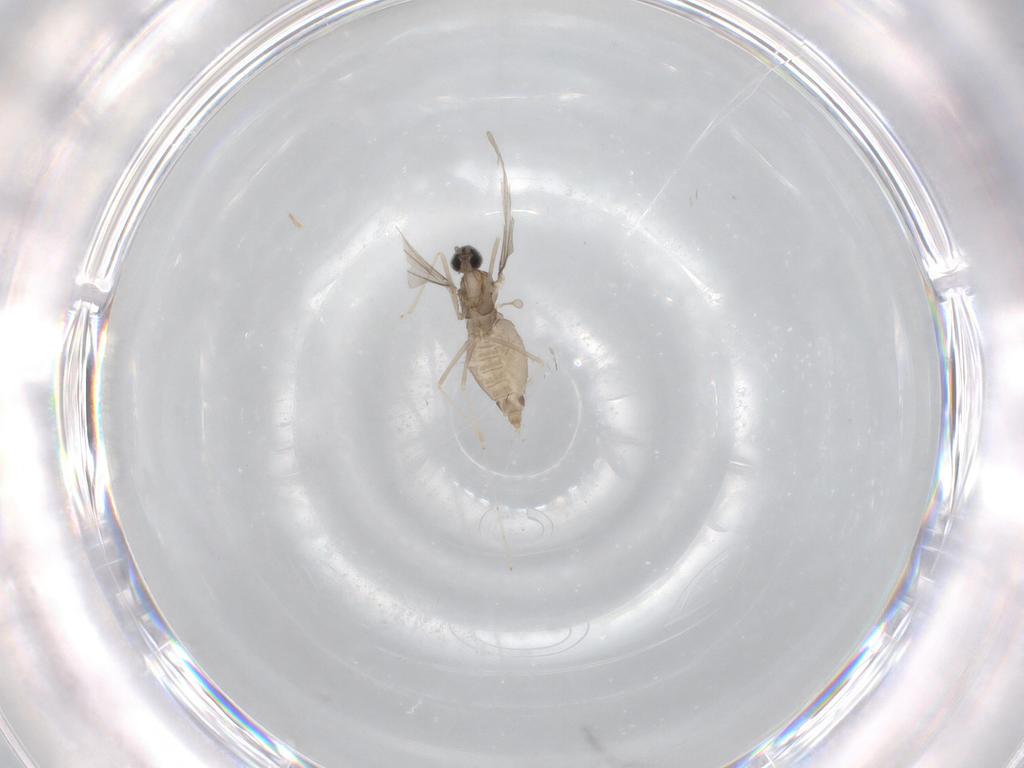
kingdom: Animalia
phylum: Arthropoda
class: Insecta
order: Diptera
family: Cecidomyiidae
